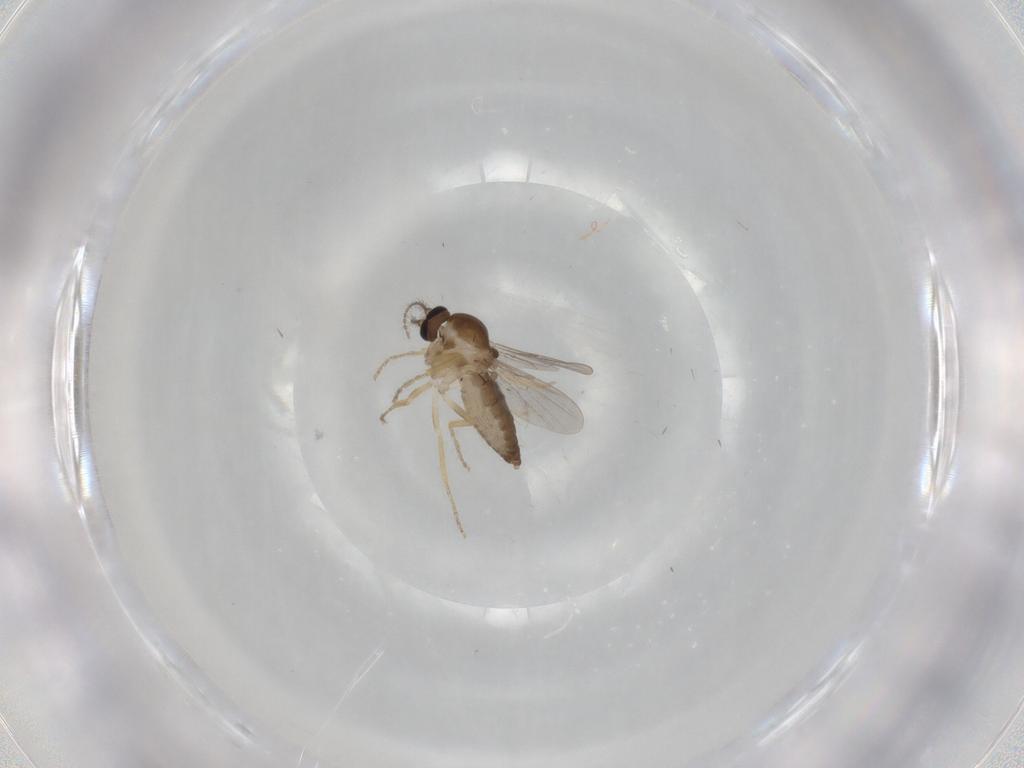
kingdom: Animalia
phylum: Arthropoda
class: Insecta
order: Diptera
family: Ceratopogonidae
